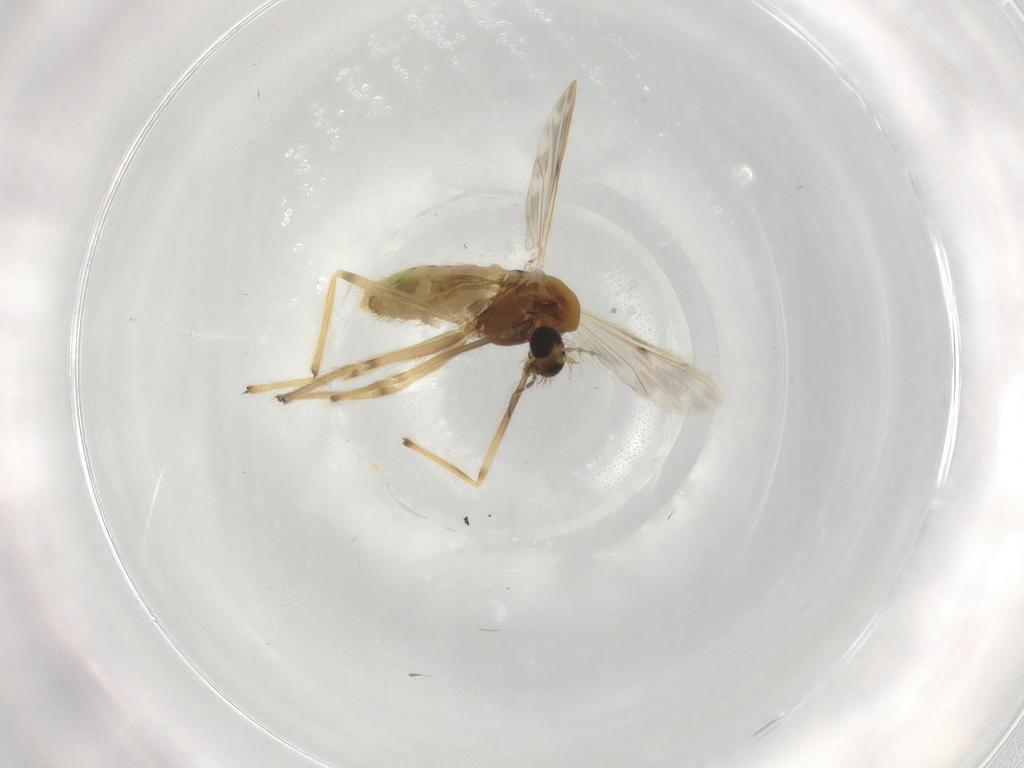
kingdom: Animalia
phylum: Arthropoda
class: Insecta
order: Diptera
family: Chironomidae
